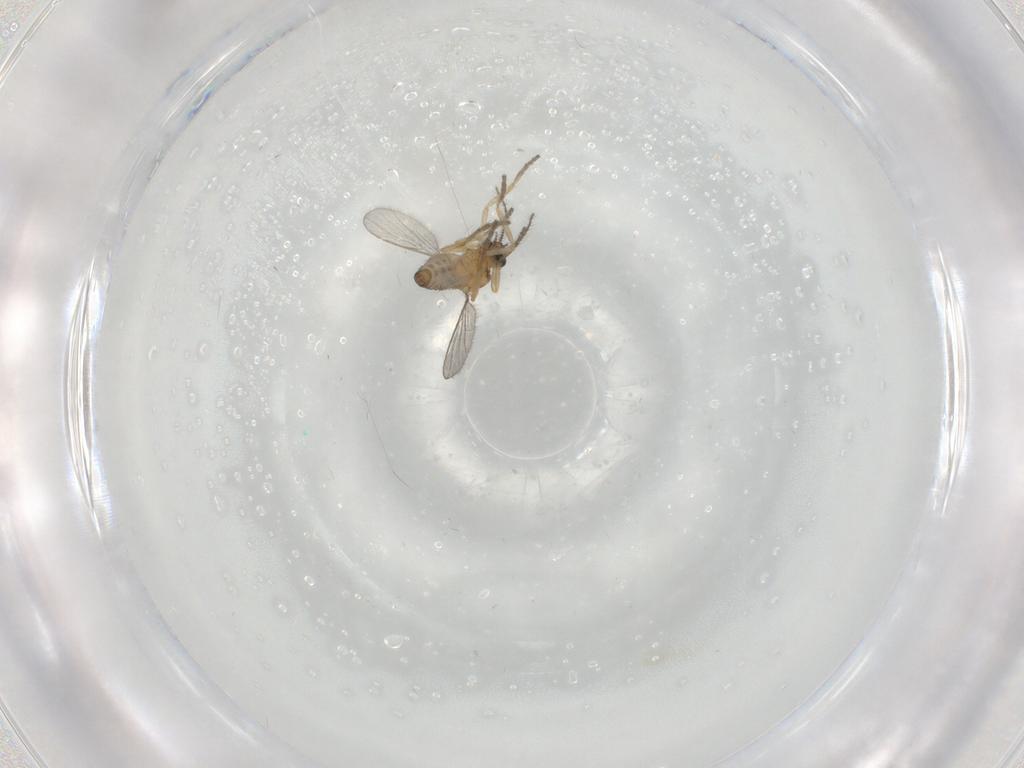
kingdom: Animalia
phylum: Arthropoda
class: Insecta
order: Diptera
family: Ceratopogonidae
